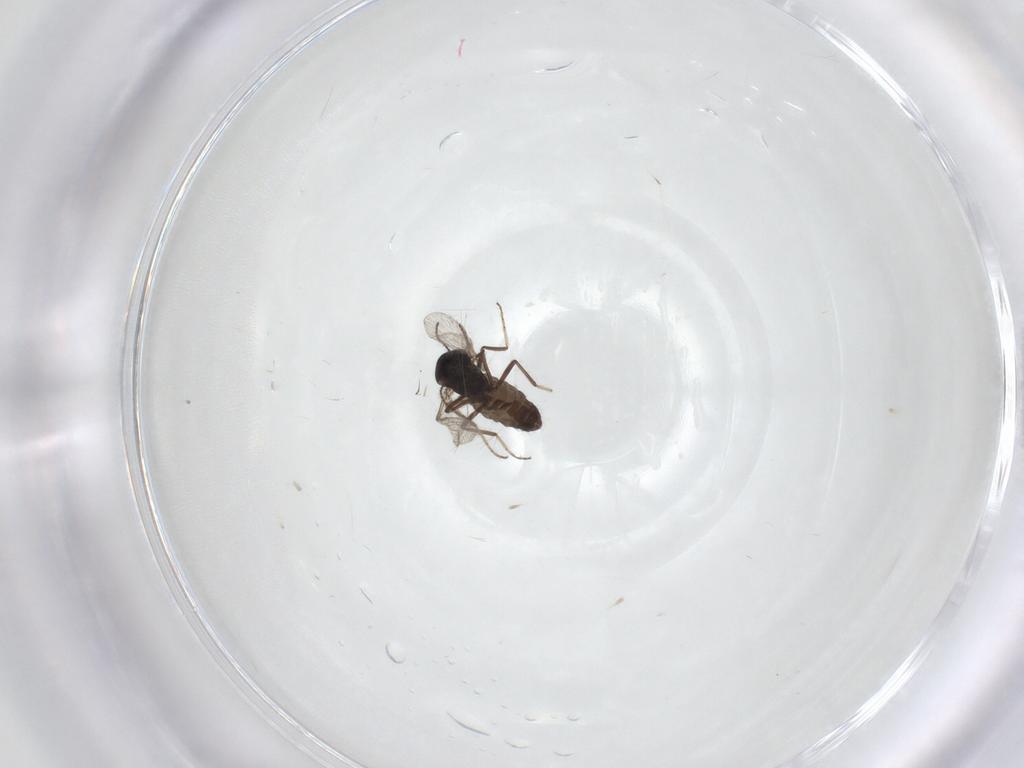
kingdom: Animalia
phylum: Arthropoda
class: Insecta
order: Diptera
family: Ceratopogonidae
